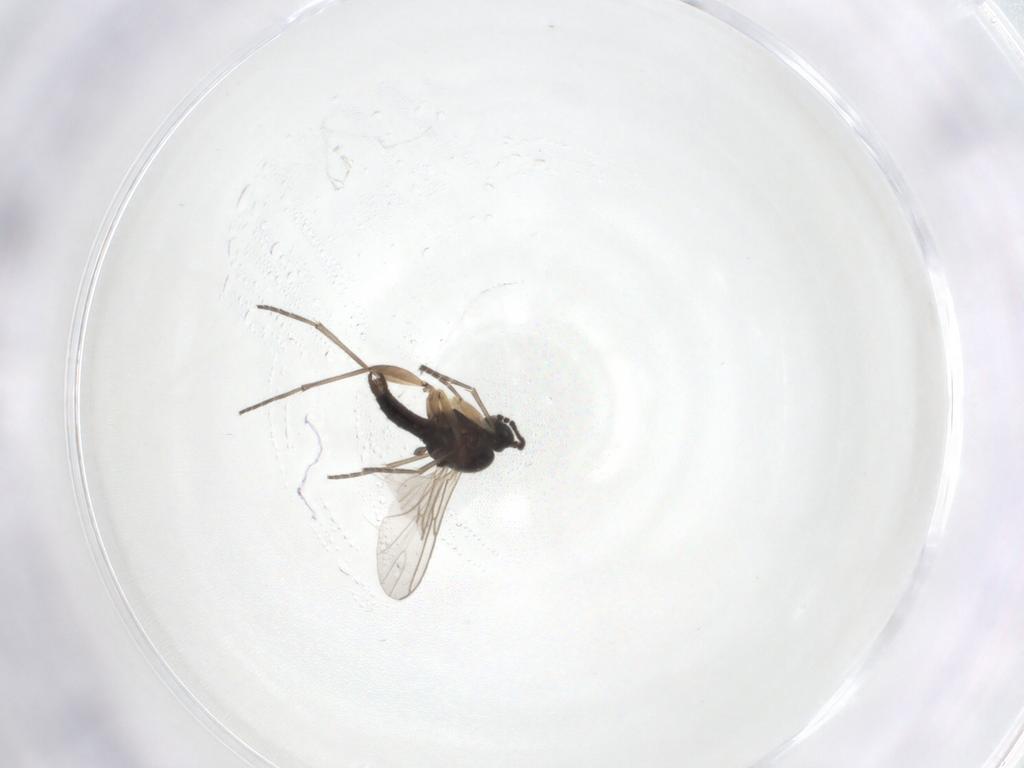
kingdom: Animalia
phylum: Arthropoda
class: Insecta
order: Diptera
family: Sciaridae
